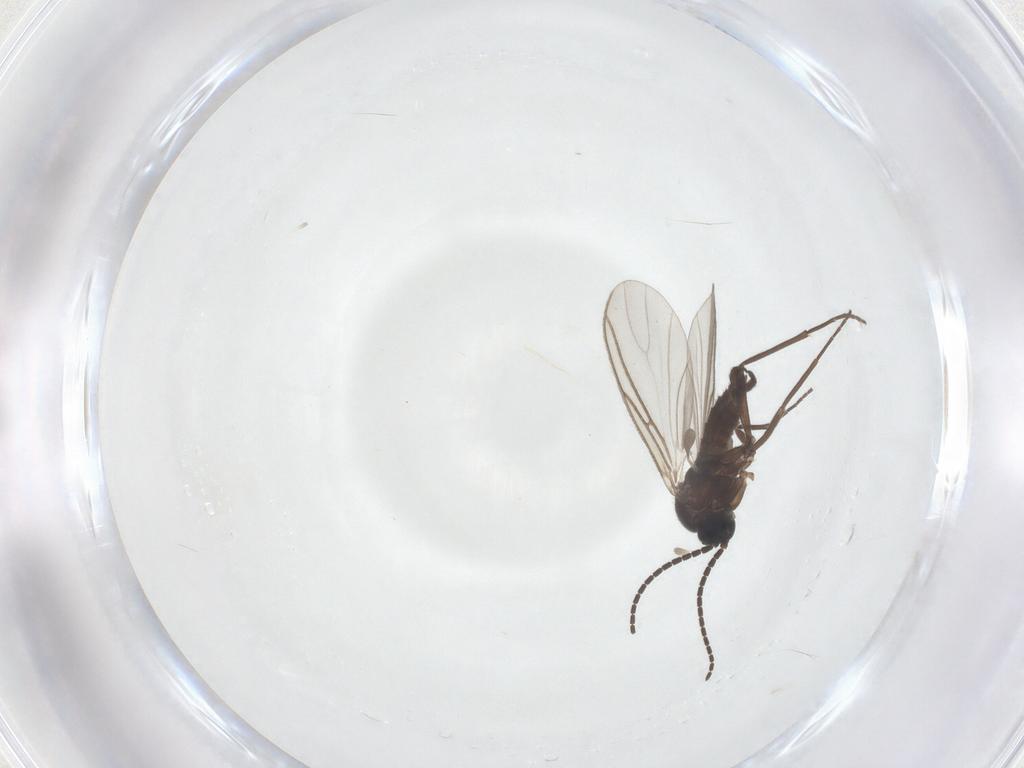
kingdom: Animalia
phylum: Arthropoda
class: Insecta
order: Diptera
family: Sciaridae
